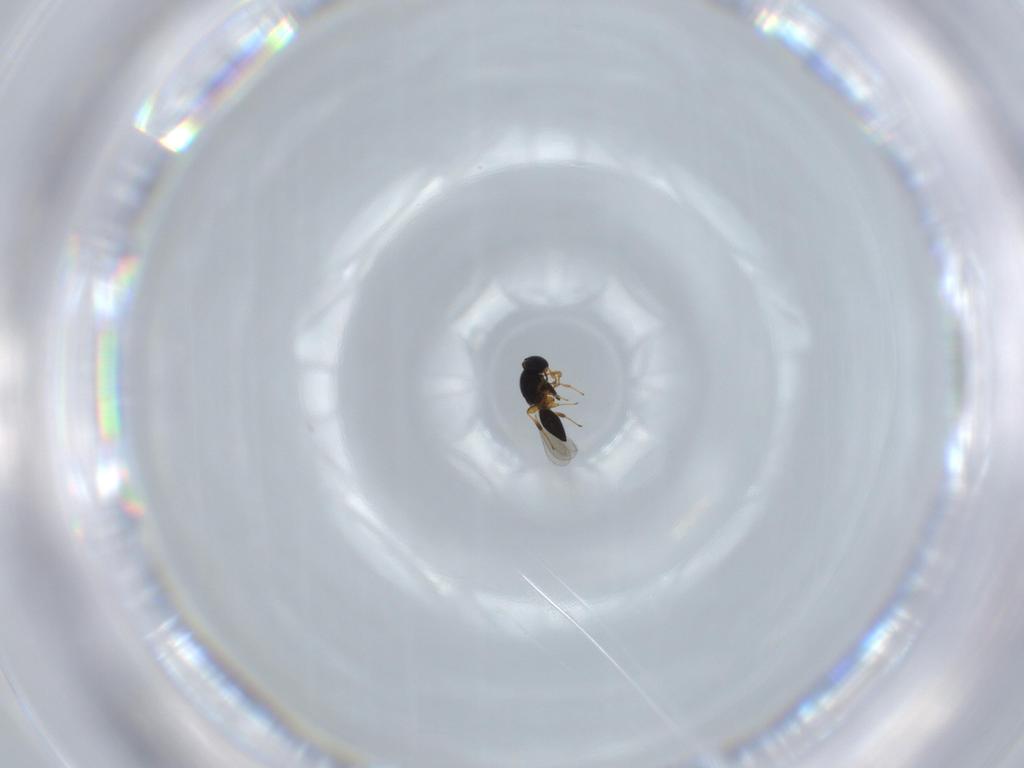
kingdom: Animalia
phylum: Arthropoda
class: Insecta
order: Hymenoptera
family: Platygastridae
